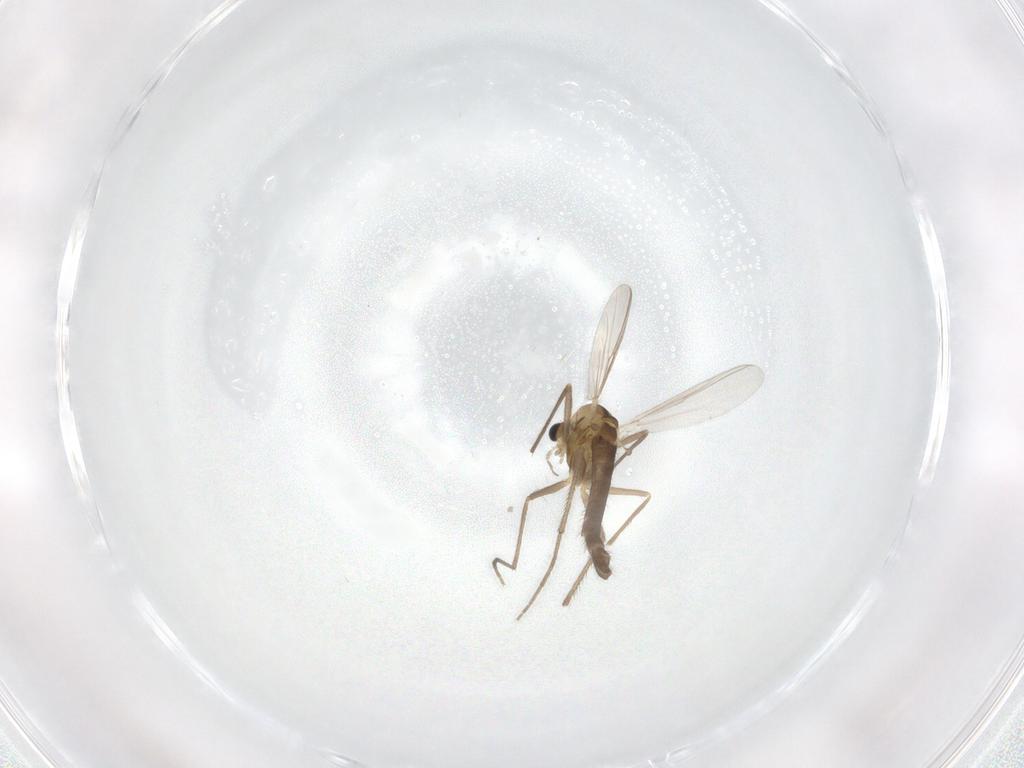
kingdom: Animalia
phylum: Arthropoda
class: Insecta
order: Diptera
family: Chironomidae
